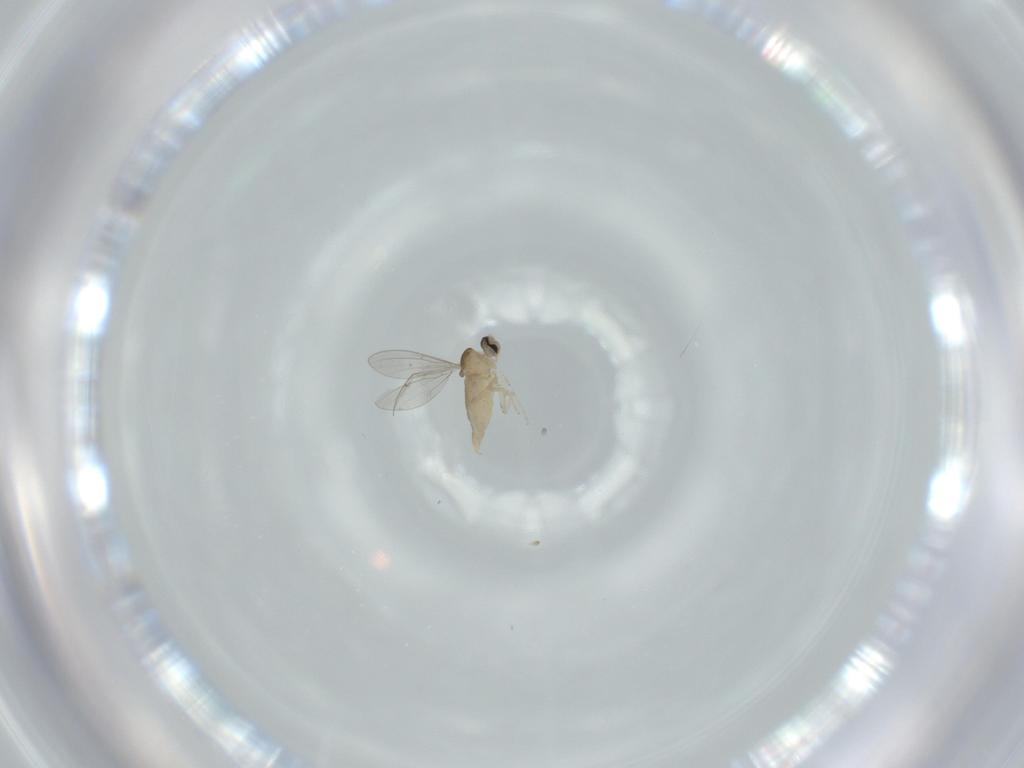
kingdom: Animalia
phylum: Arthropoda
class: Insecta
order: Diptera
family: Cecidomyiidae
